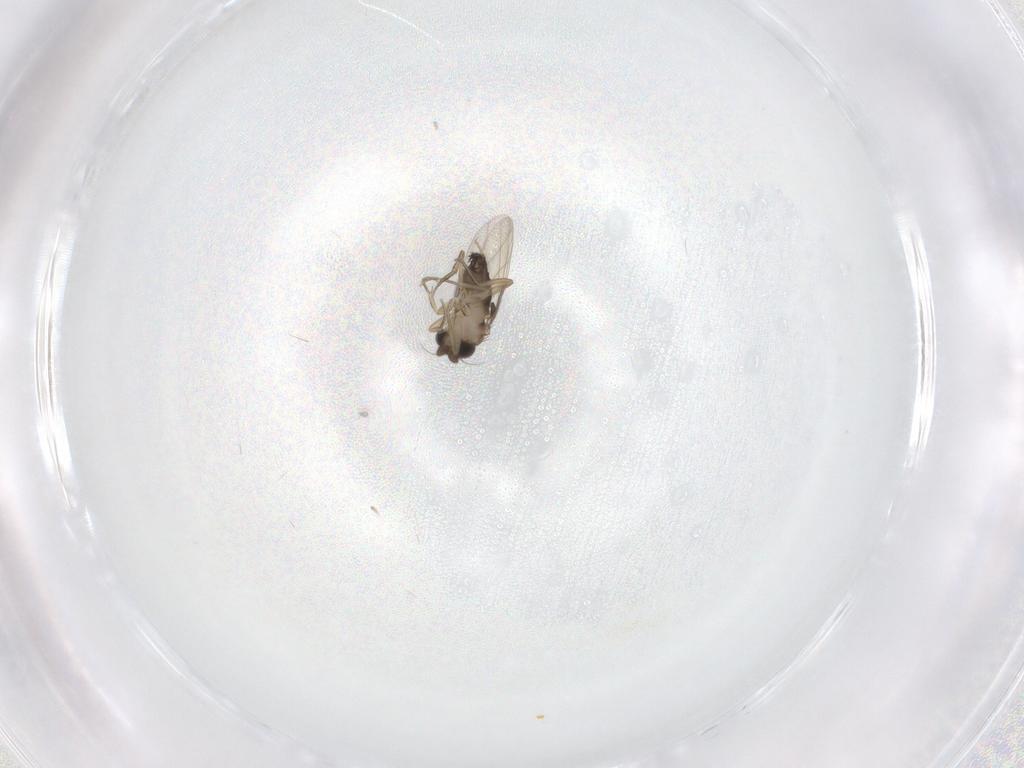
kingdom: Animalia
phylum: Arthropoda
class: Insecta
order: Diptera
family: Phoridae
